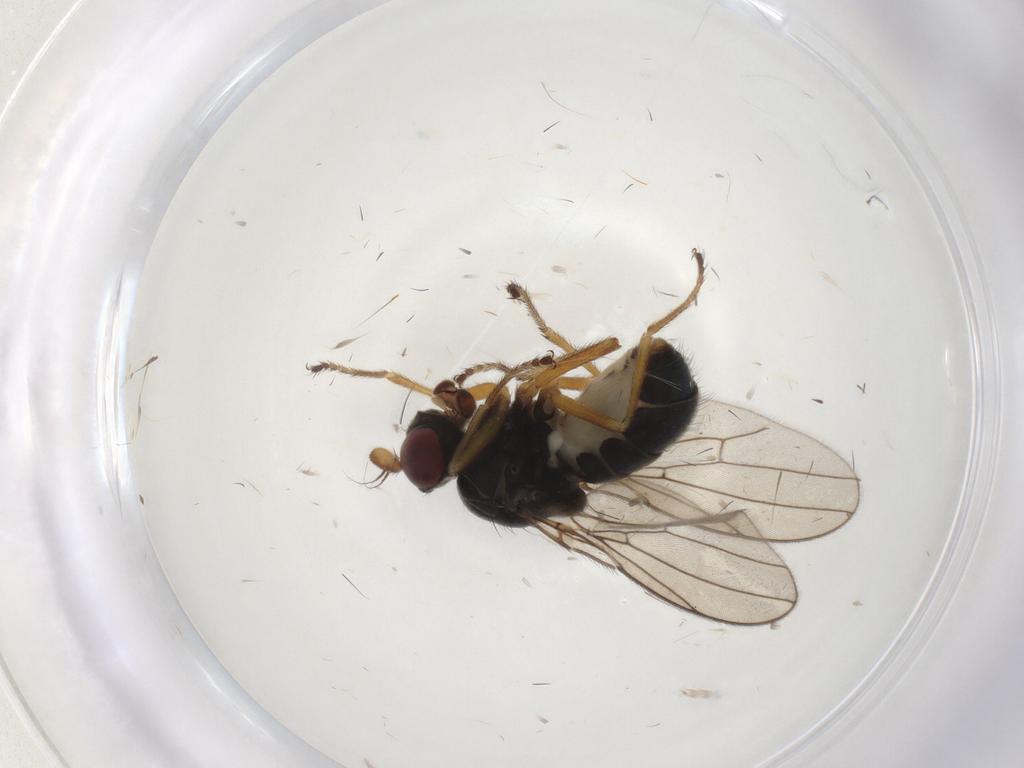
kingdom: Animalia
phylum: Arthropoda
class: Insecta
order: Diptera
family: Ephydridae
